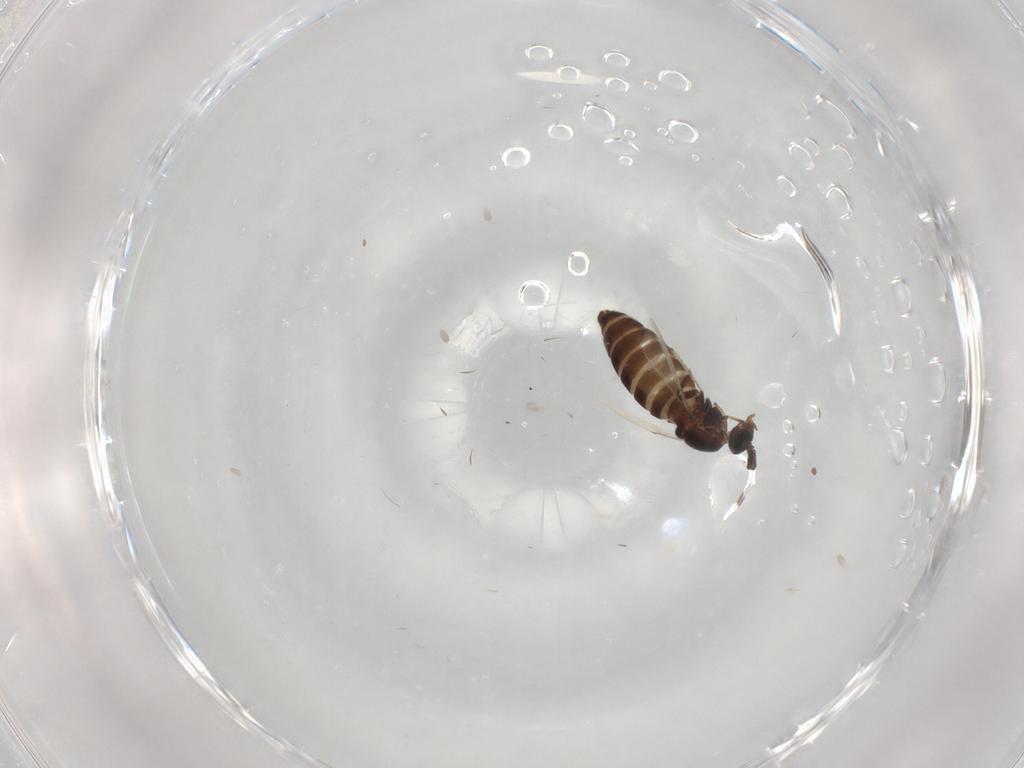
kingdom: Animalia
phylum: Arthropoda
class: Insecta
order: Diptera
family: Scatopsidae
